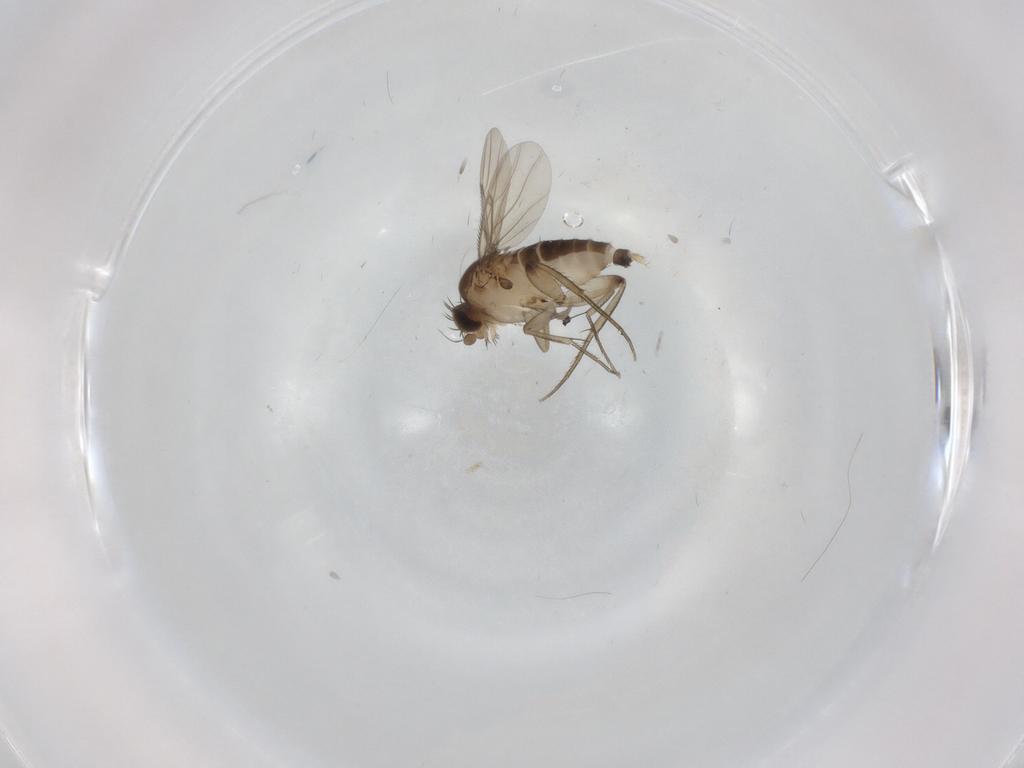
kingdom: Animalia
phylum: Arthropoda
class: Insecta
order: Diptera
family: Phoridae
